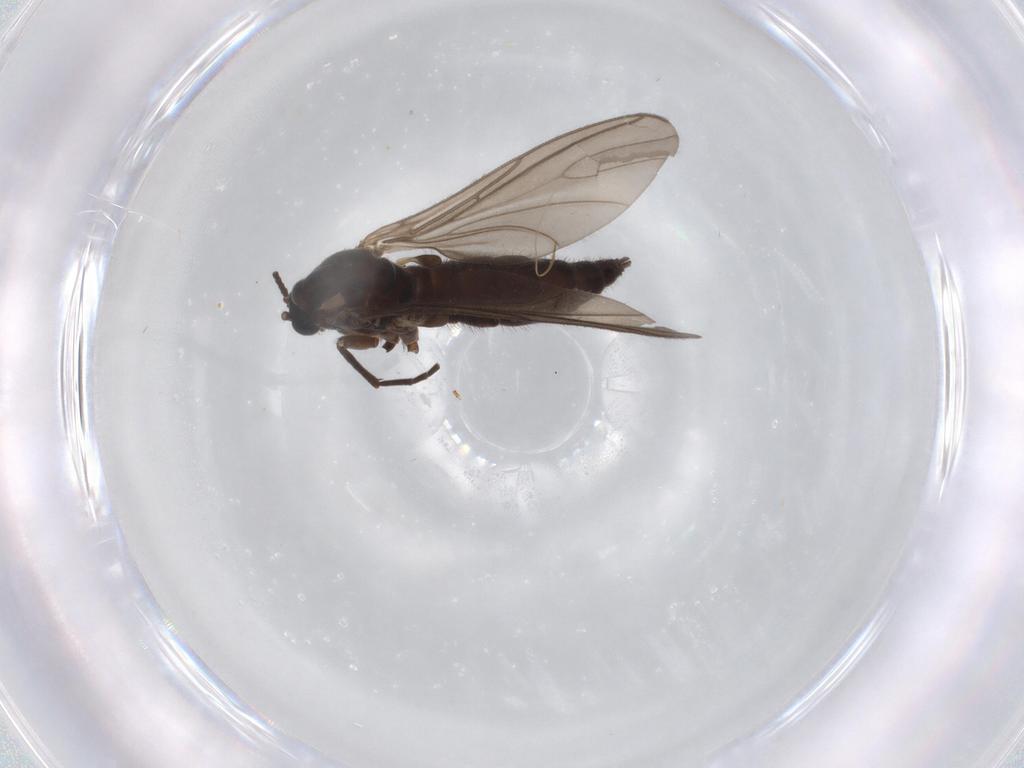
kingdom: Animalia
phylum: Arthropoda
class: Insecta
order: Diptera
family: Sciaridae
